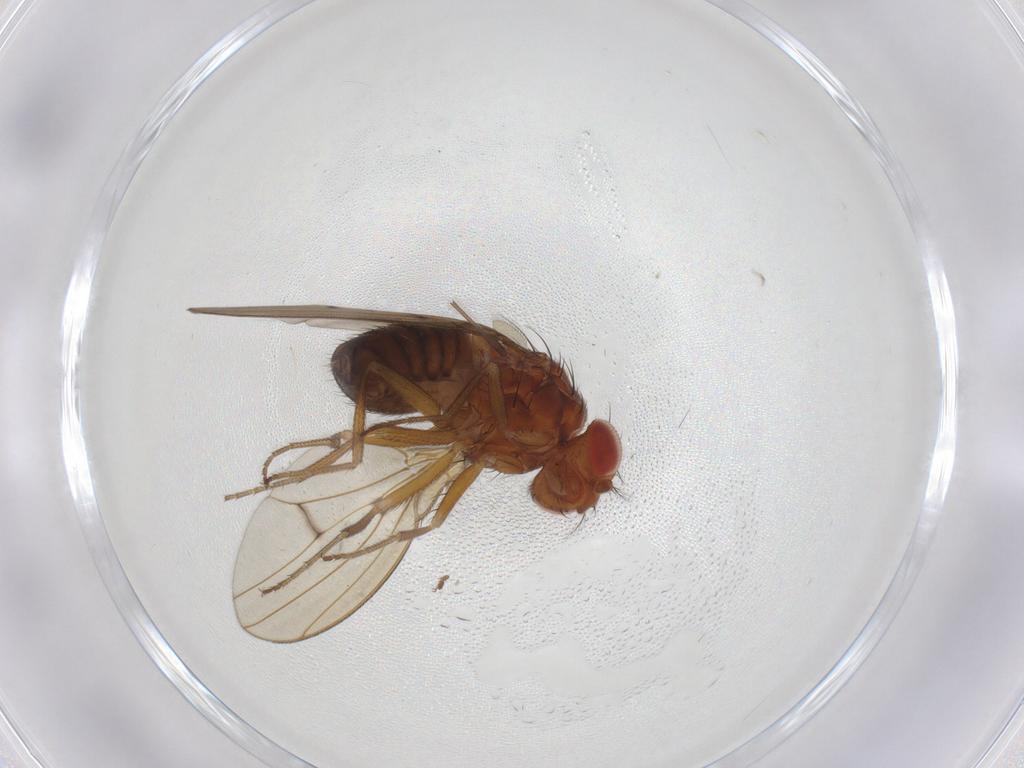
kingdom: Animalia
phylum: Arthropoda
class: Insecta
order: Diptera
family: Drosophilidae
